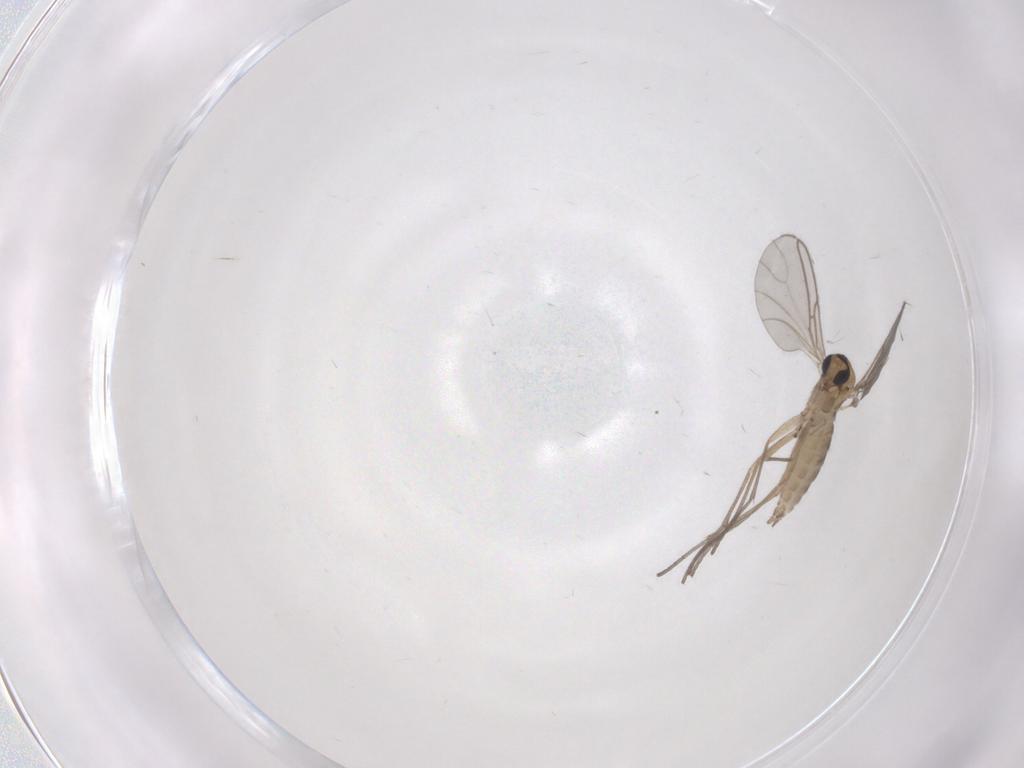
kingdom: Animalia
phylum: Arthropoda
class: Insecta
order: Diptera
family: Sciaridae
